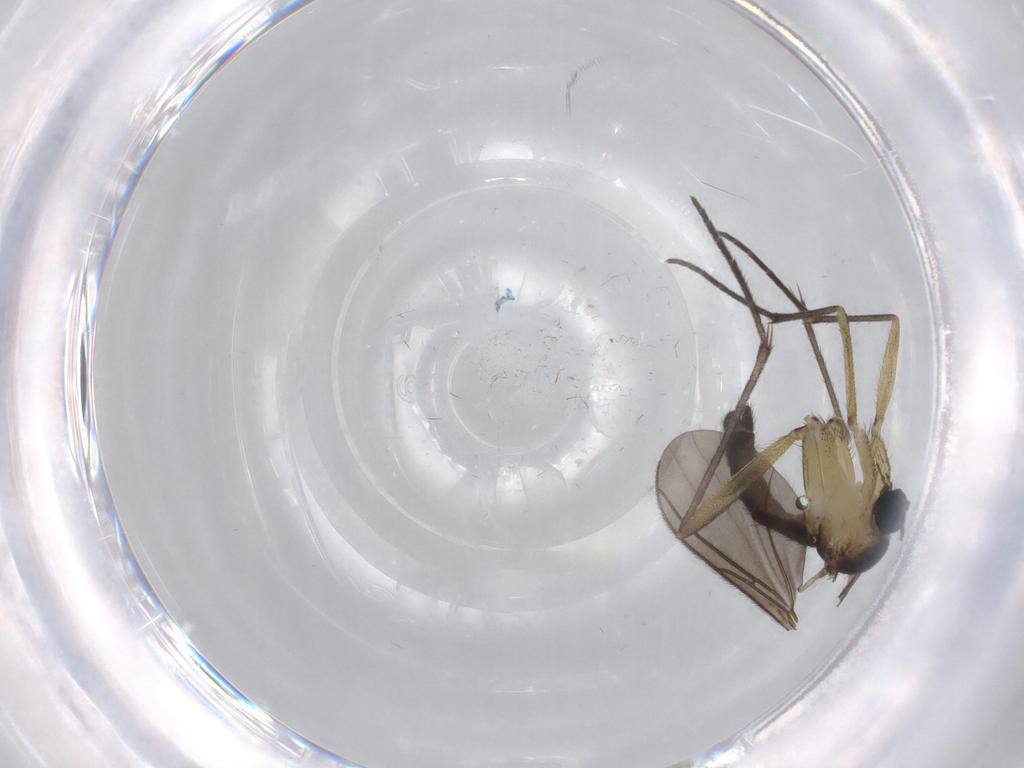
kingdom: Animalia
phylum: Arthropoda
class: Insecta
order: Diptera
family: Sciaridae
